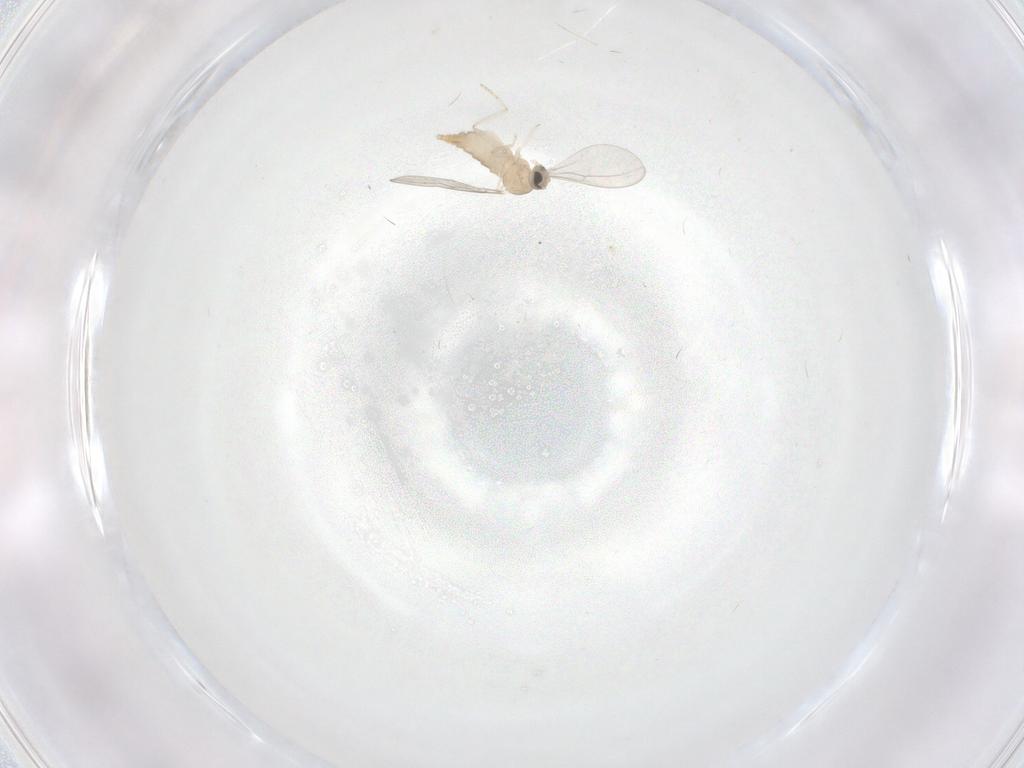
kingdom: Animalia
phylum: Arthropoda
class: Insecta
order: Diptera
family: Cecidomyiidae
